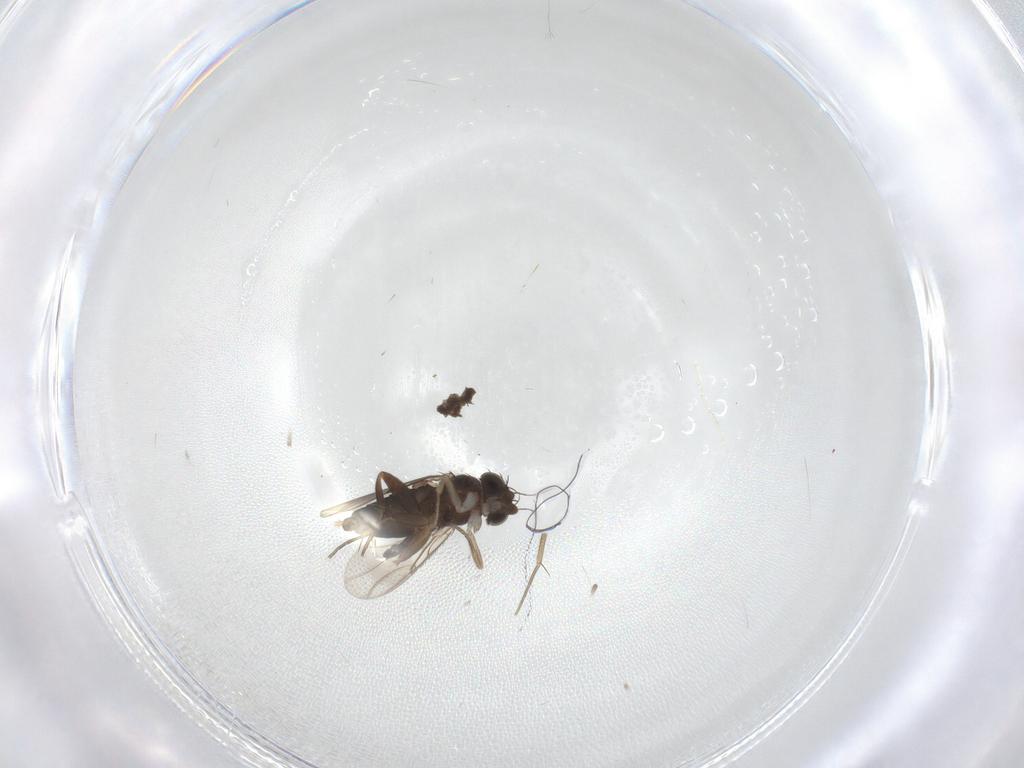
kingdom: Animalia
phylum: Arthropoda
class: Insecta
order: Diptera
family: Phoridae
